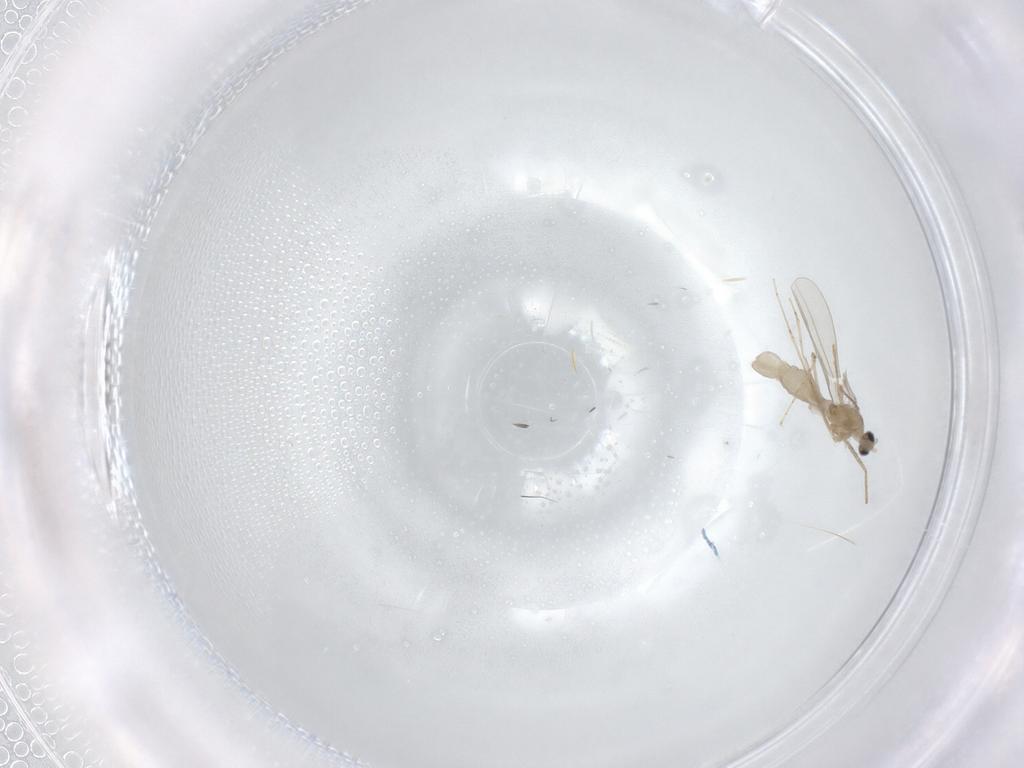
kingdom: Animalia
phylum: Arthropoda
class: Insecta
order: Diptera
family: Cecidomyiidae
